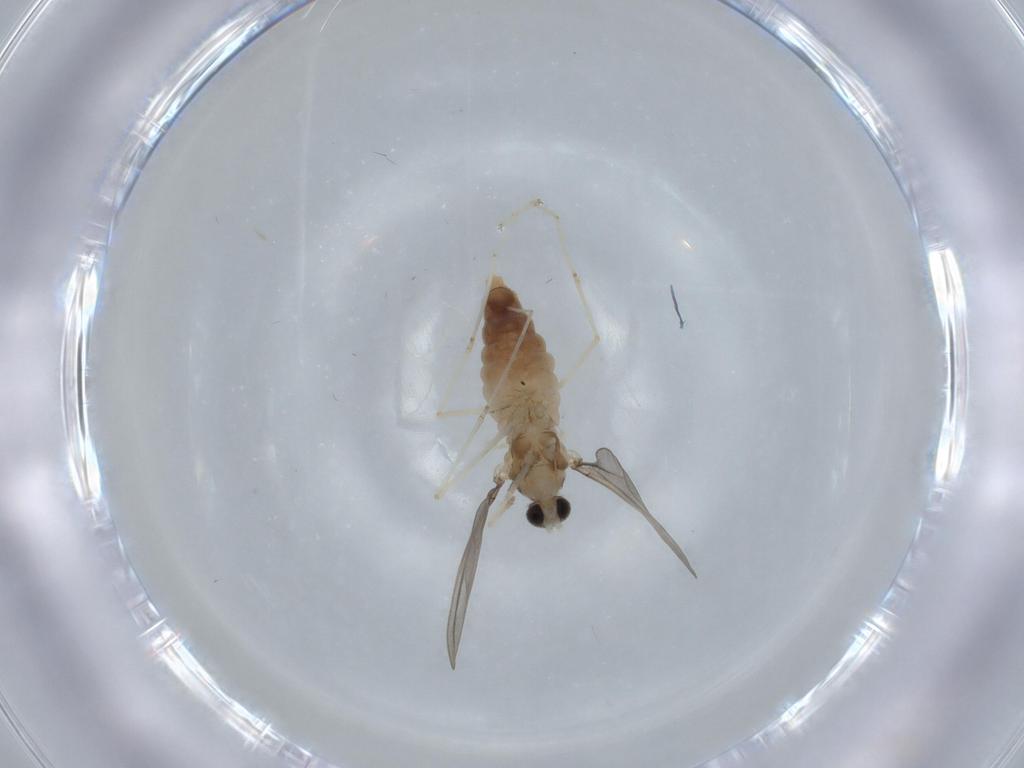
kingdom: Animalia
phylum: Arthropoda
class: Insecta
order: Diptera
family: Cecidomyiidae
